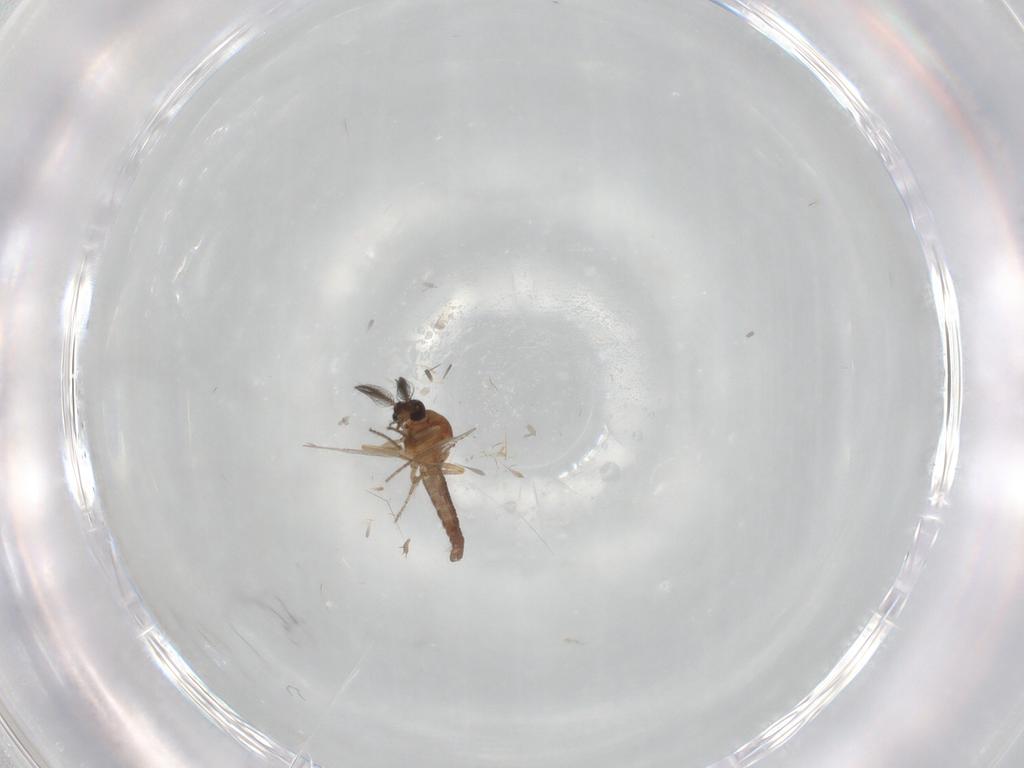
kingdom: Animalia
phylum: Arthropoda
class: Insecta
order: Diptera
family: Ceratopogonidae
